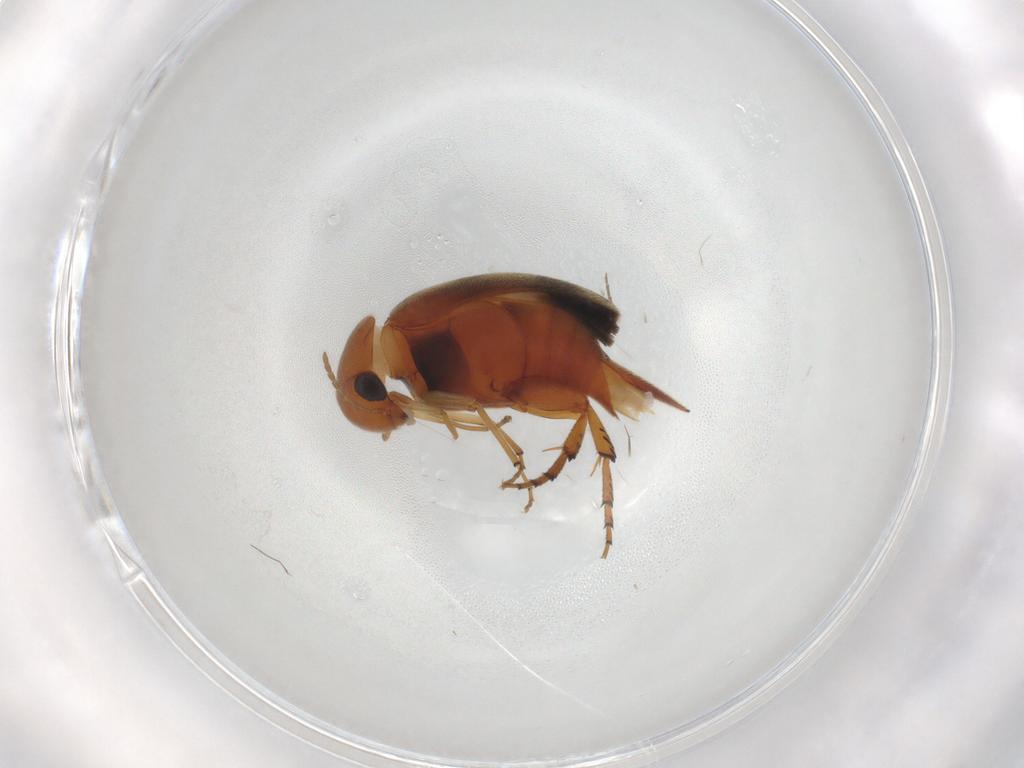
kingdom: Animalia
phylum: Arthropoda
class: Insecta
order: Coleoptera
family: Mordellidae
